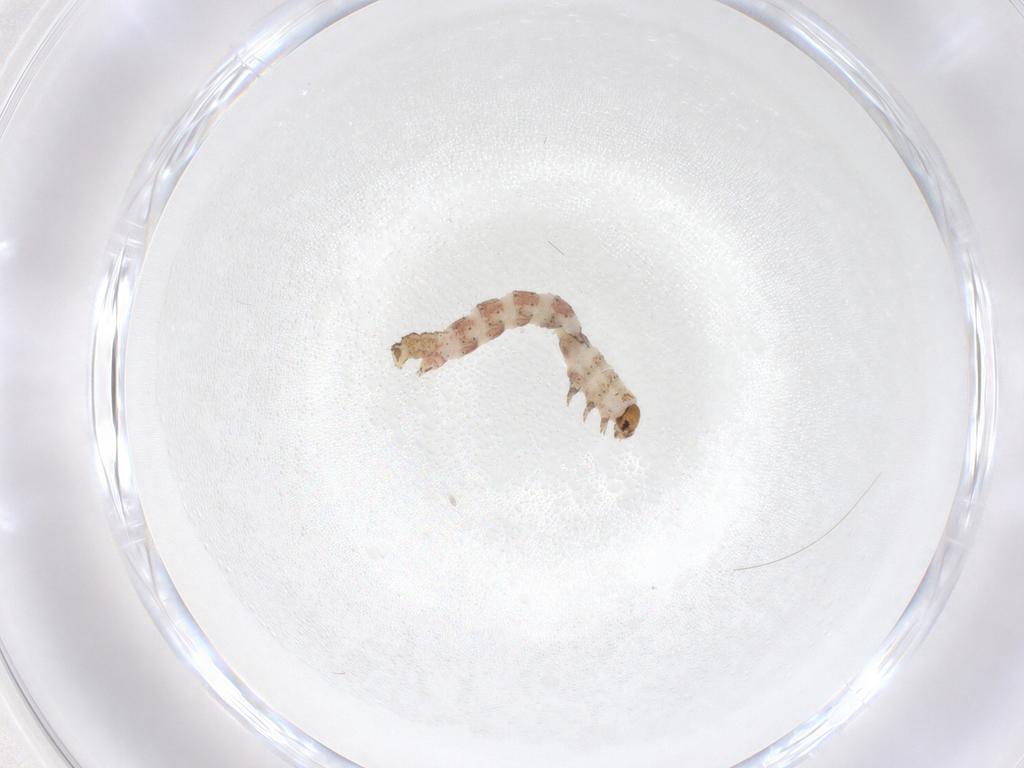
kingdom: Animalia
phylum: Arthropoda
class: Insecta
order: Lepidoptera
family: Geometridae
